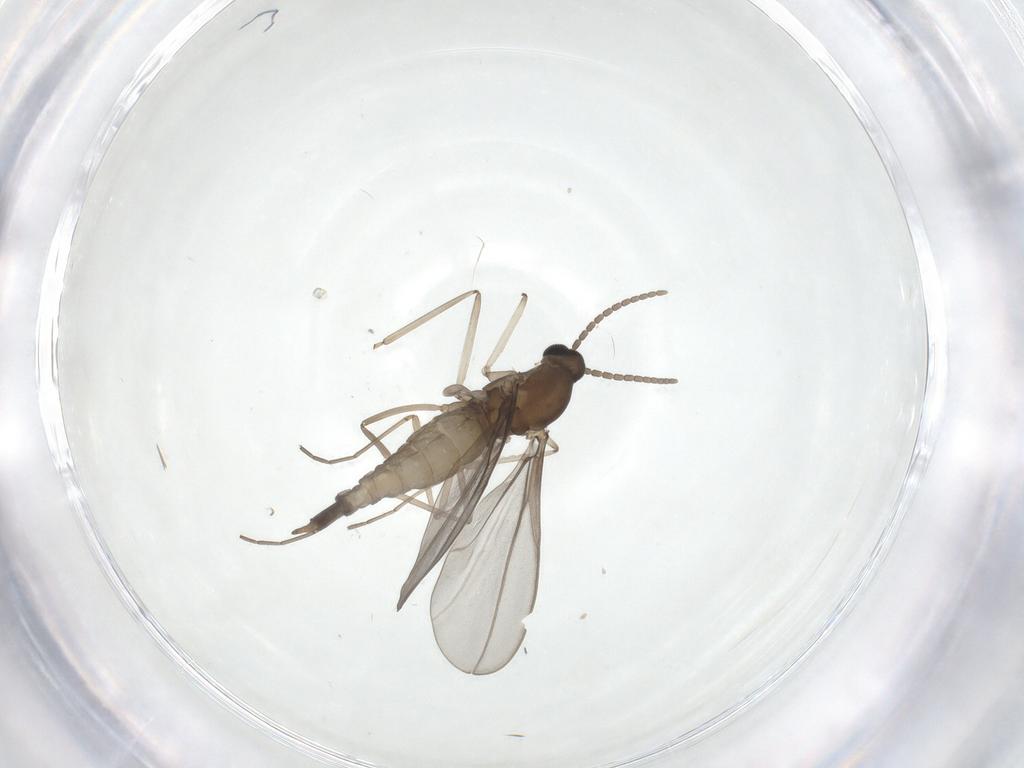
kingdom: Animalia
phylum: Arthropoda
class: Insecta
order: Diptera
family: Cecidomyiidae
